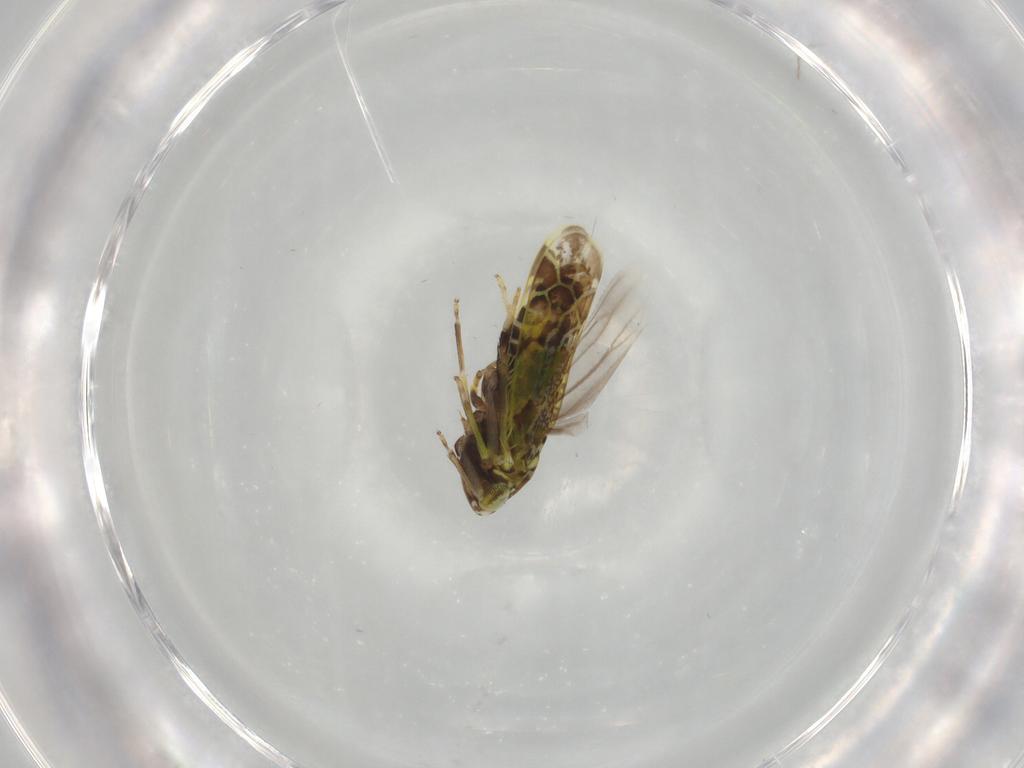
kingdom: Animalia
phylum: Arthropoda
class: Insecta
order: Hemiptera
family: Cicadellidae
